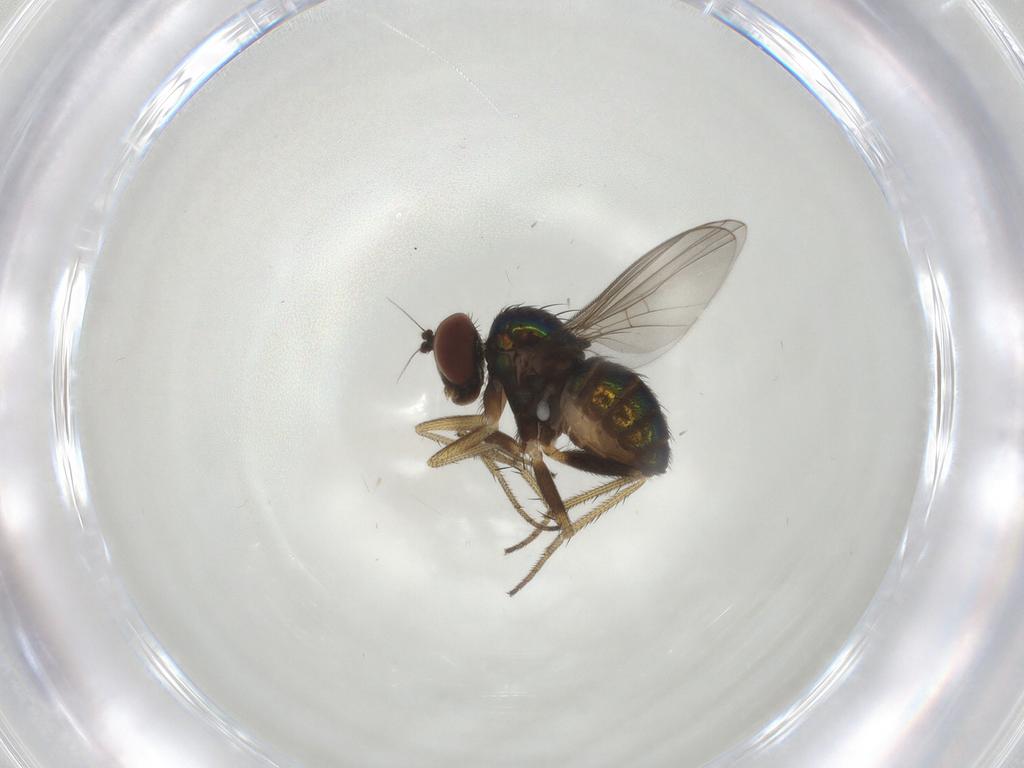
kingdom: Animalia
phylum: Arthropoda
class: Insecta
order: Diptera
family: Dolichopodidae
